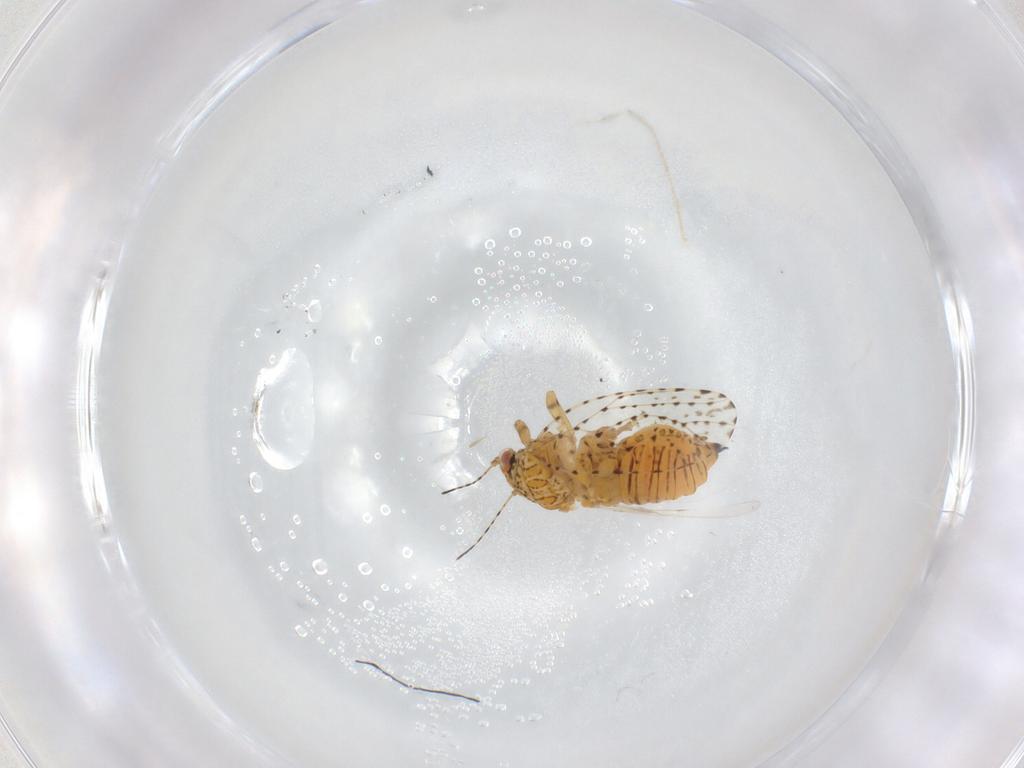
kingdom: Animalia
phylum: Arthropoda
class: Insecta
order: Hemiptera
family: Psyllidae
